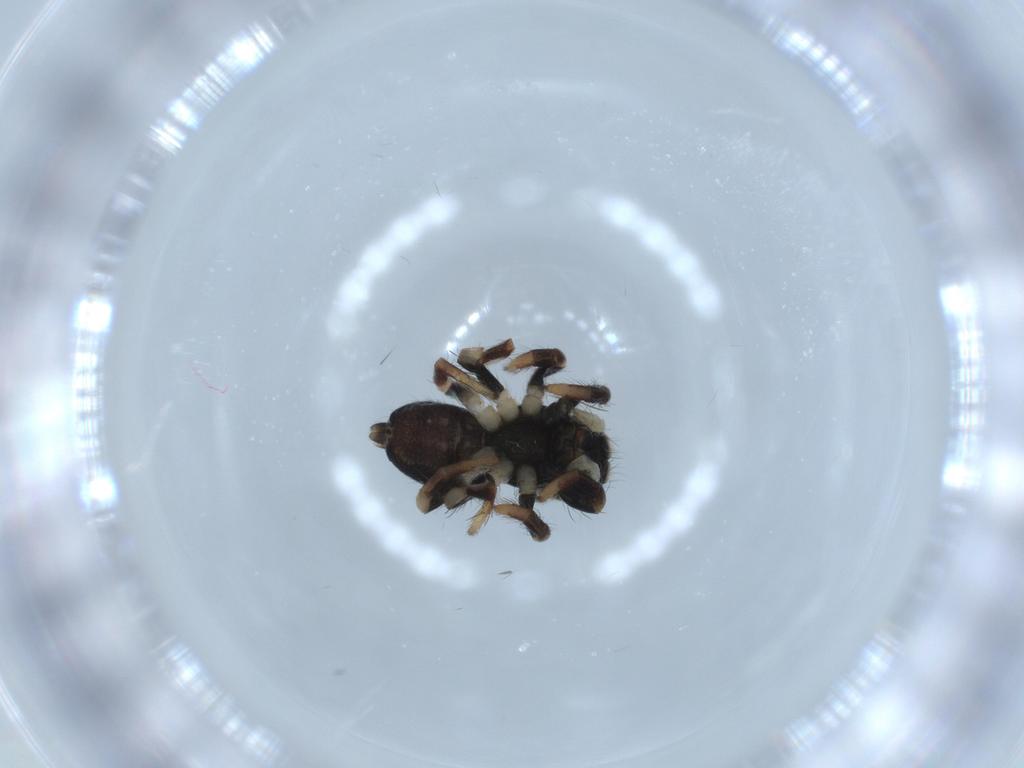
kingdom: Animalia
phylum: Arthropoda
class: Arachnida
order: Araneae
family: Salticidae
